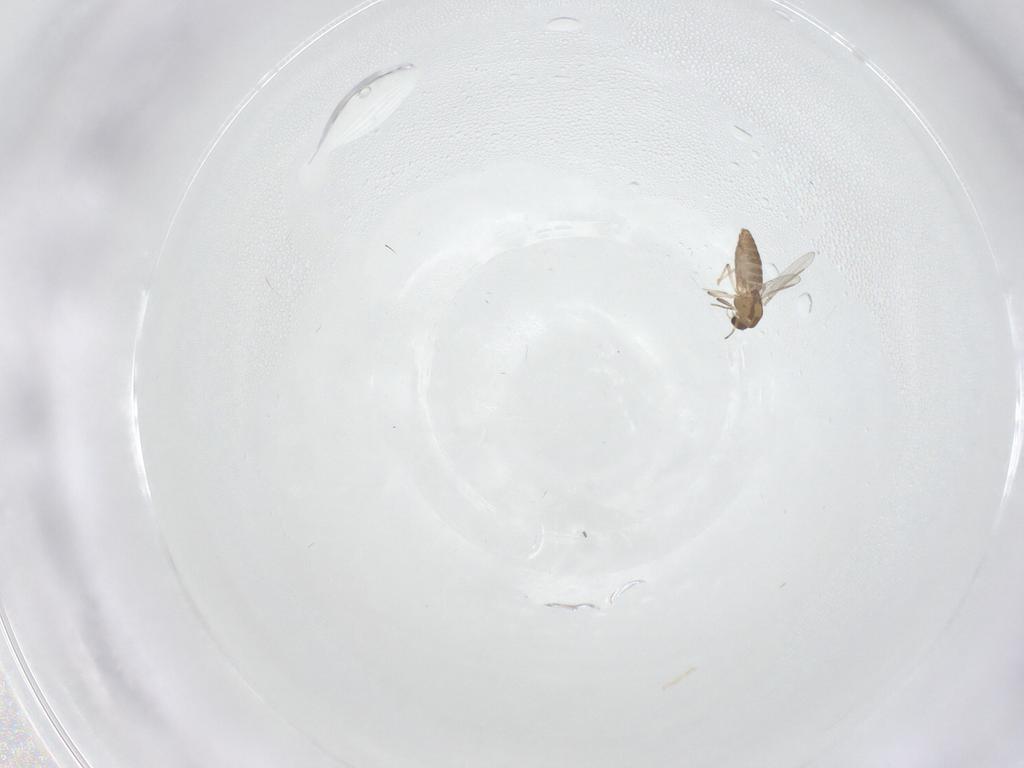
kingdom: Animalia
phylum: Arthropoda
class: Insecta
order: Diptera
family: Chironomidae
